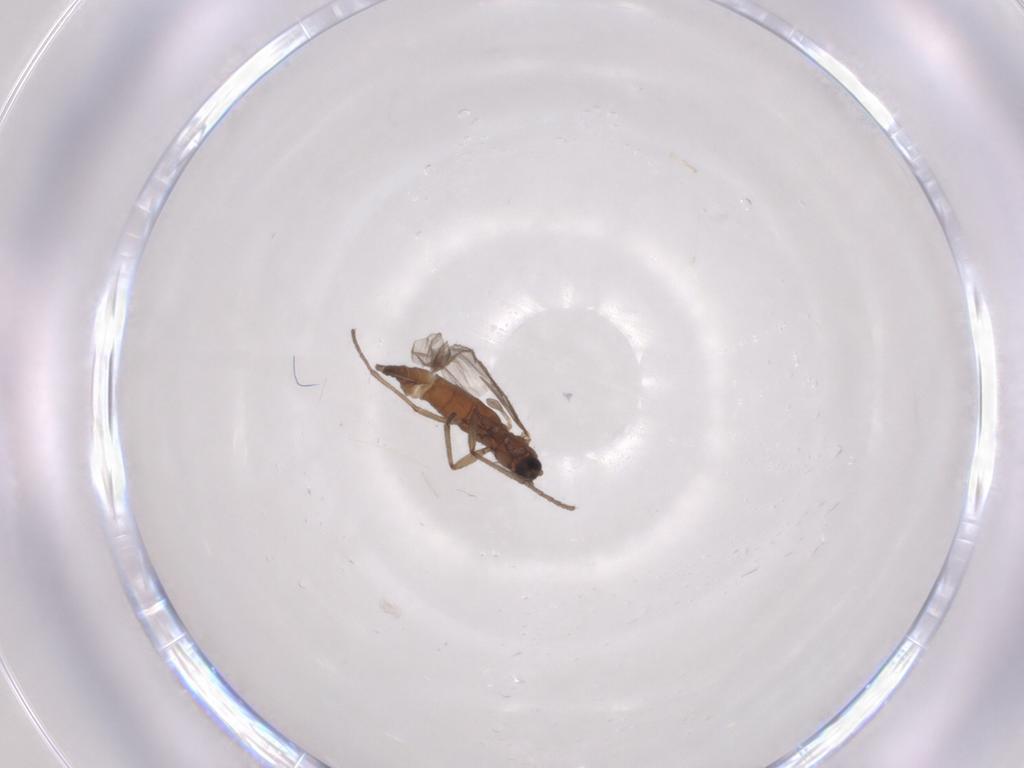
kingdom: Animalia
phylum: Arthropoda
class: Insecta
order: Diptera
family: Sciaridae
